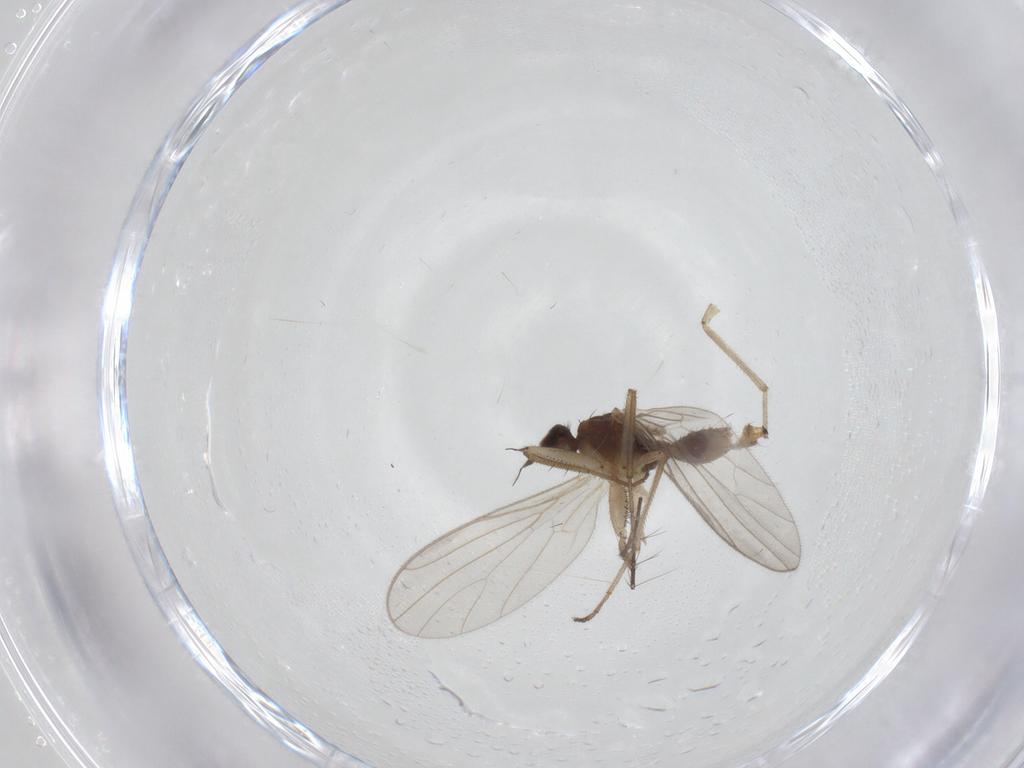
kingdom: Animalia
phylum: Arthropoda
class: Insecta
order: Diptera
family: Empididae
